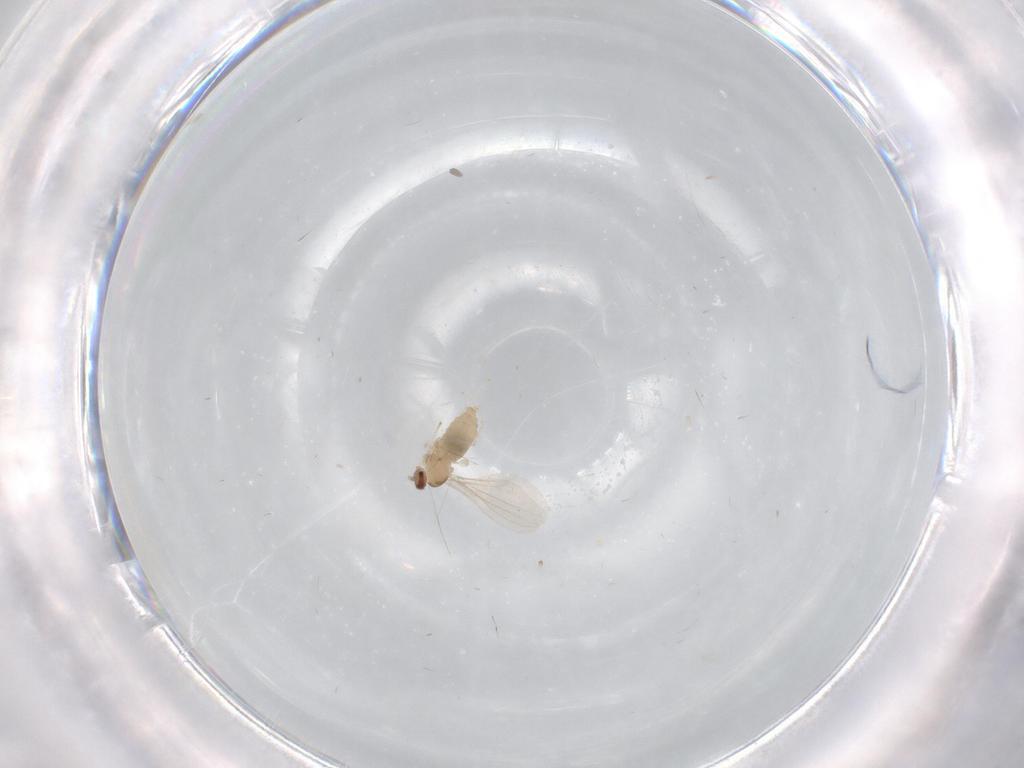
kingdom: Animalia
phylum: Arthropoda
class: Insecta
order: Diptera
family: Cecidomyiidae
